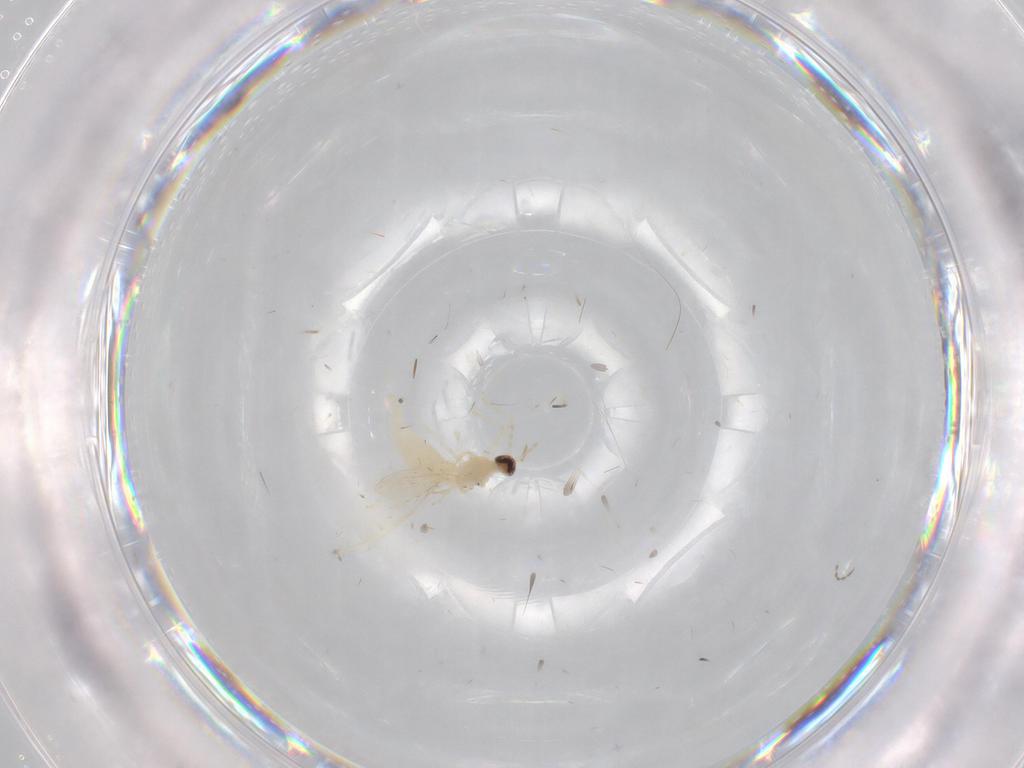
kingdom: Animalia
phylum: Arthropoda
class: Insecta
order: Diptera
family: Cecidomyiidae
